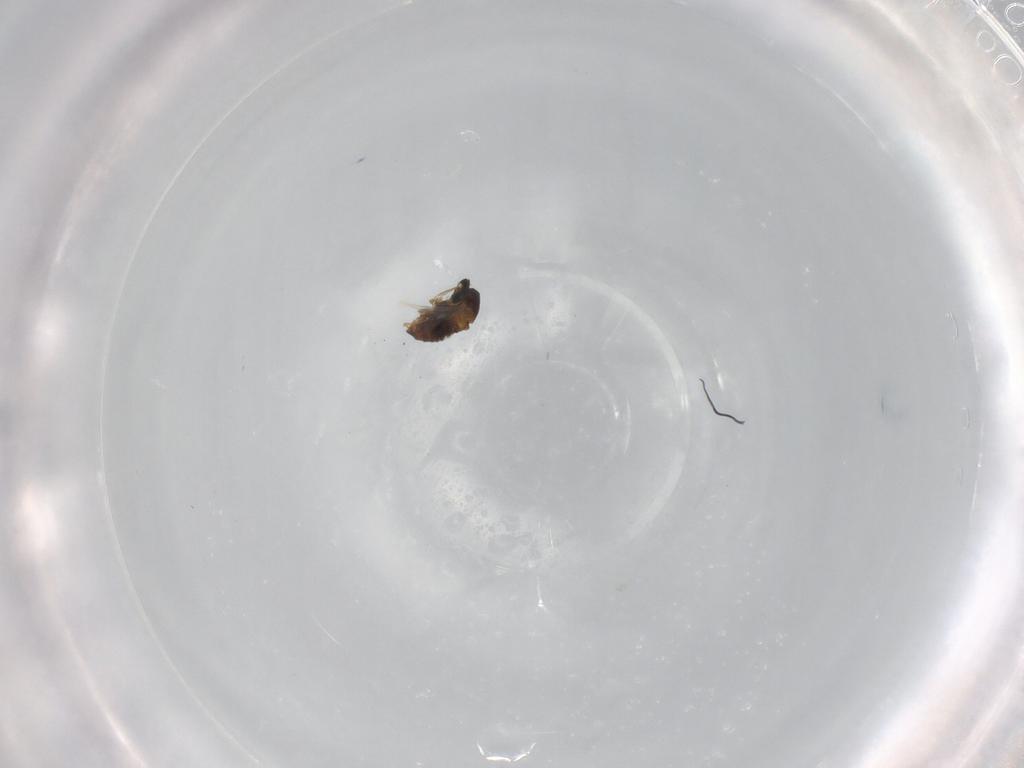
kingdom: Animalia
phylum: Arthropoda
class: Insecta
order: Diptera
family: Cecidomyiidae
